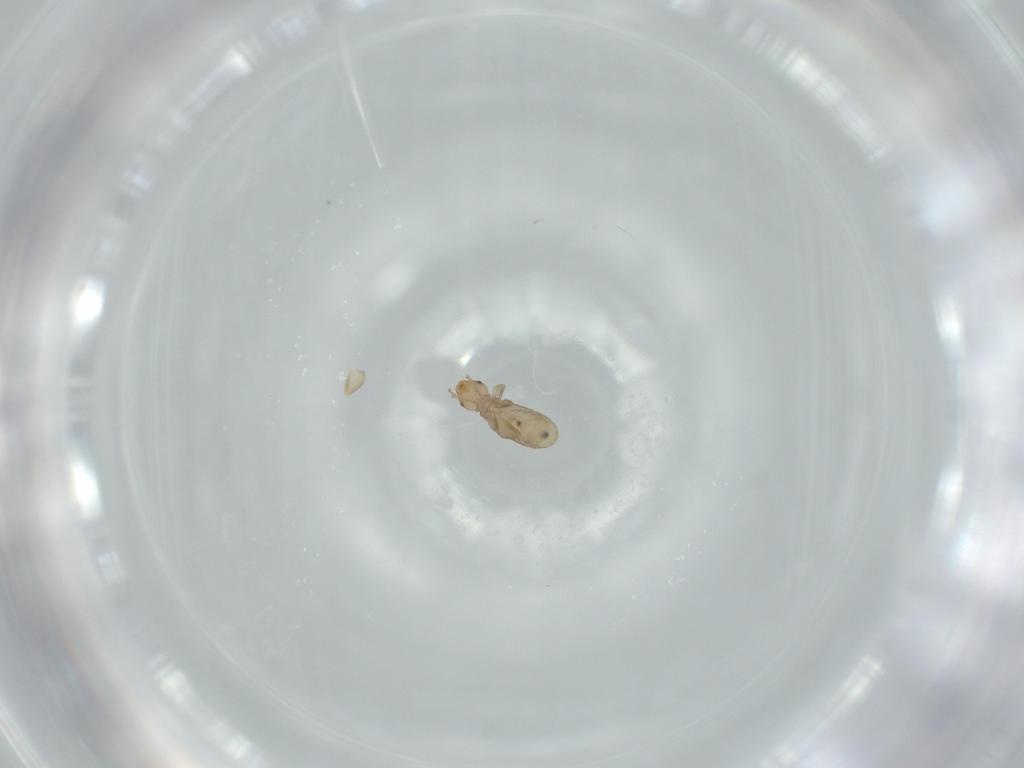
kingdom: Animalia
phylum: Arthropoda
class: Insecta
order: Psocodea
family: Liposcelididae
